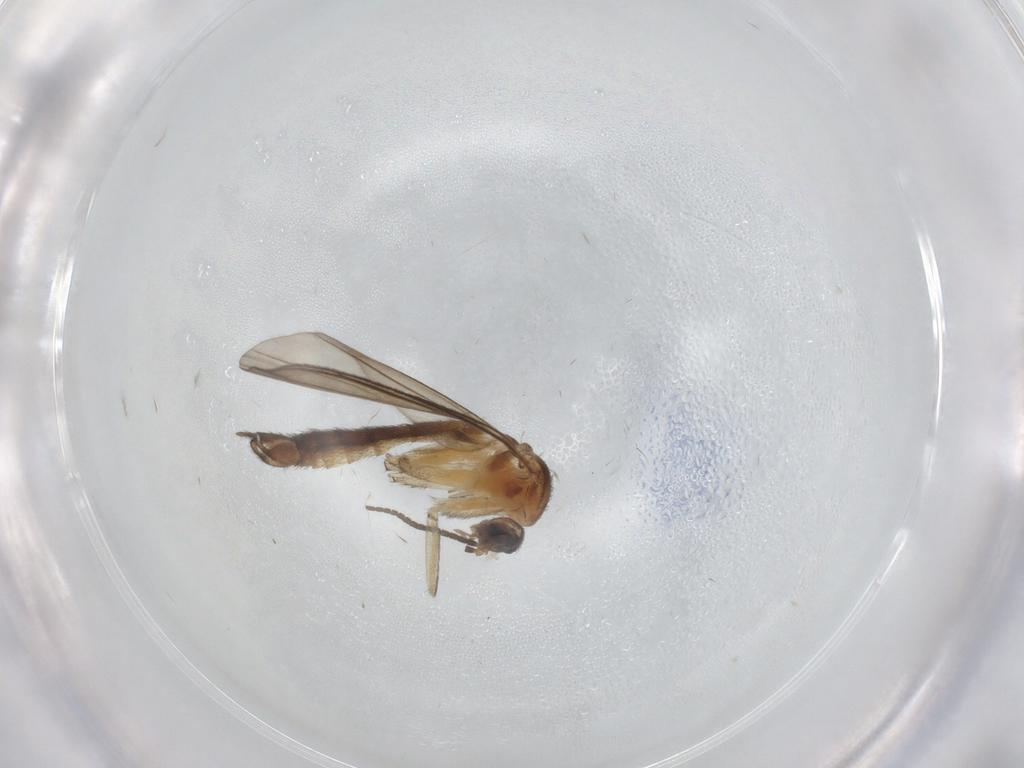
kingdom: Animalia
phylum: Arthropoda
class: Insecta
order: Diptera
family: Keroplatidae
